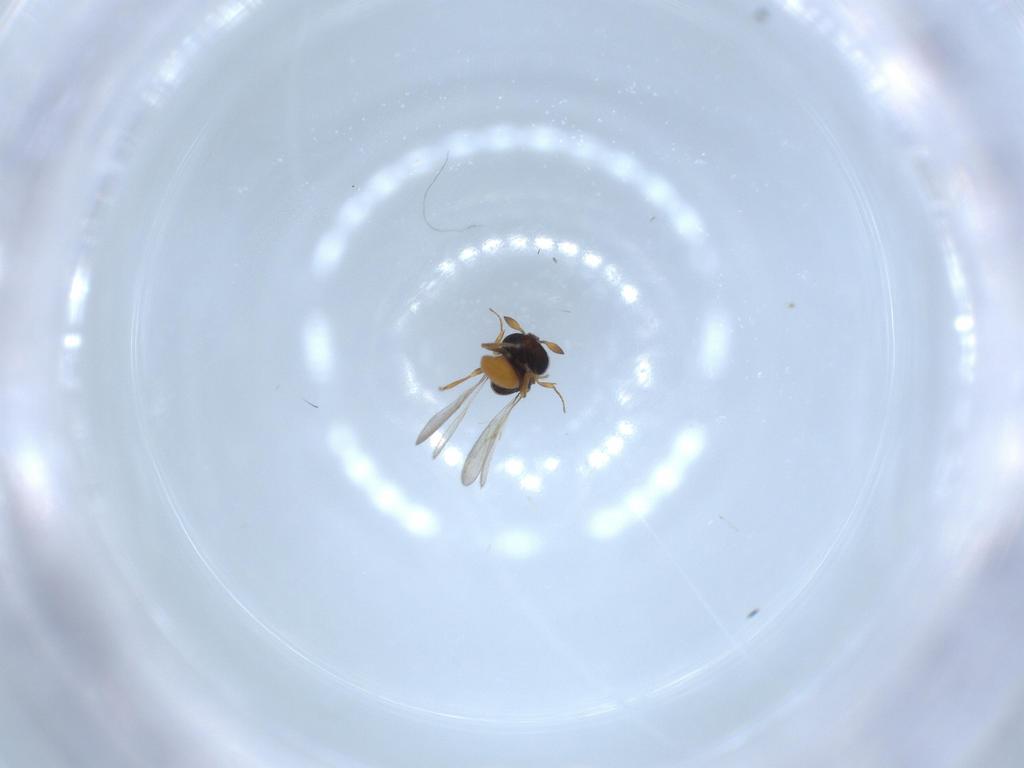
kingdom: Animalia
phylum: Arthropoda
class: Insecta
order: Hymenoptera
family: Scelionidae
